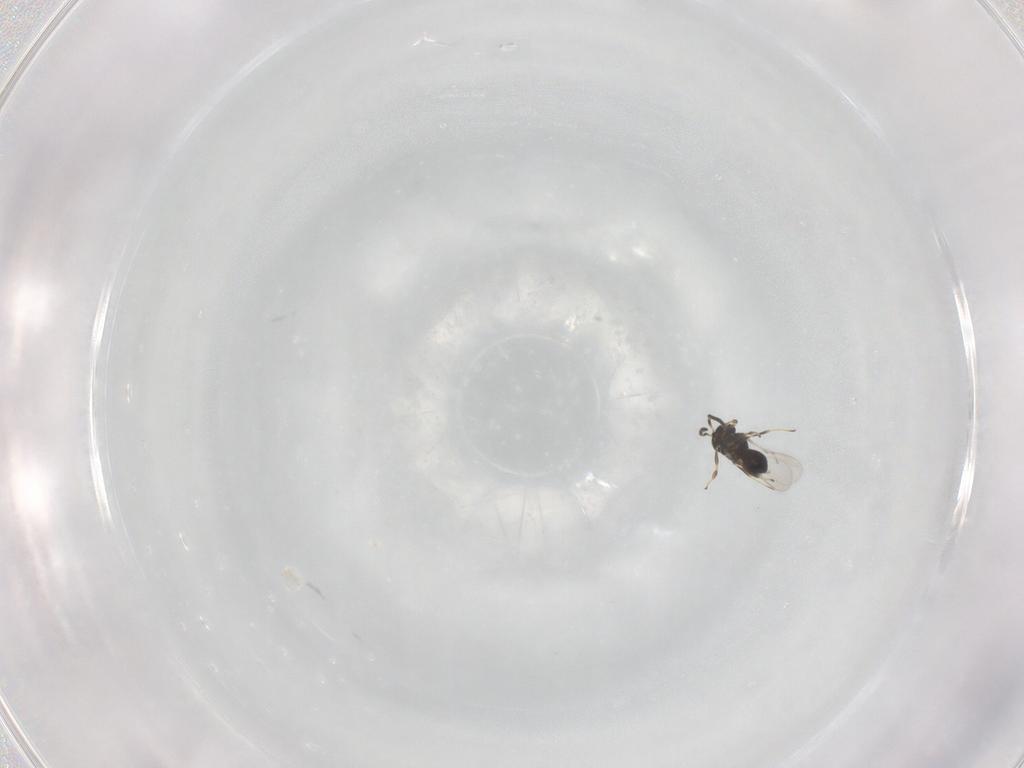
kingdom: Animalia
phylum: Arthropoda
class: Insecta
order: Hymenoptera
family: Scelionidae
